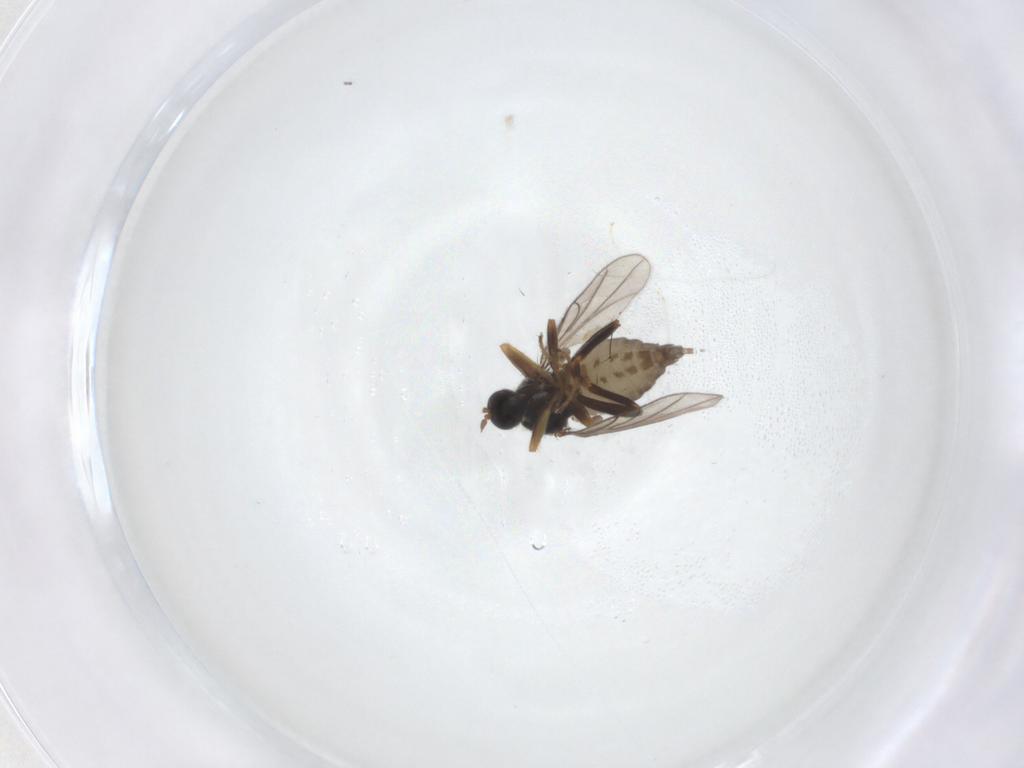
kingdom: Animalia
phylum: Arthropoda
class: Insecta
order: Diptera
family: Hybotidae
